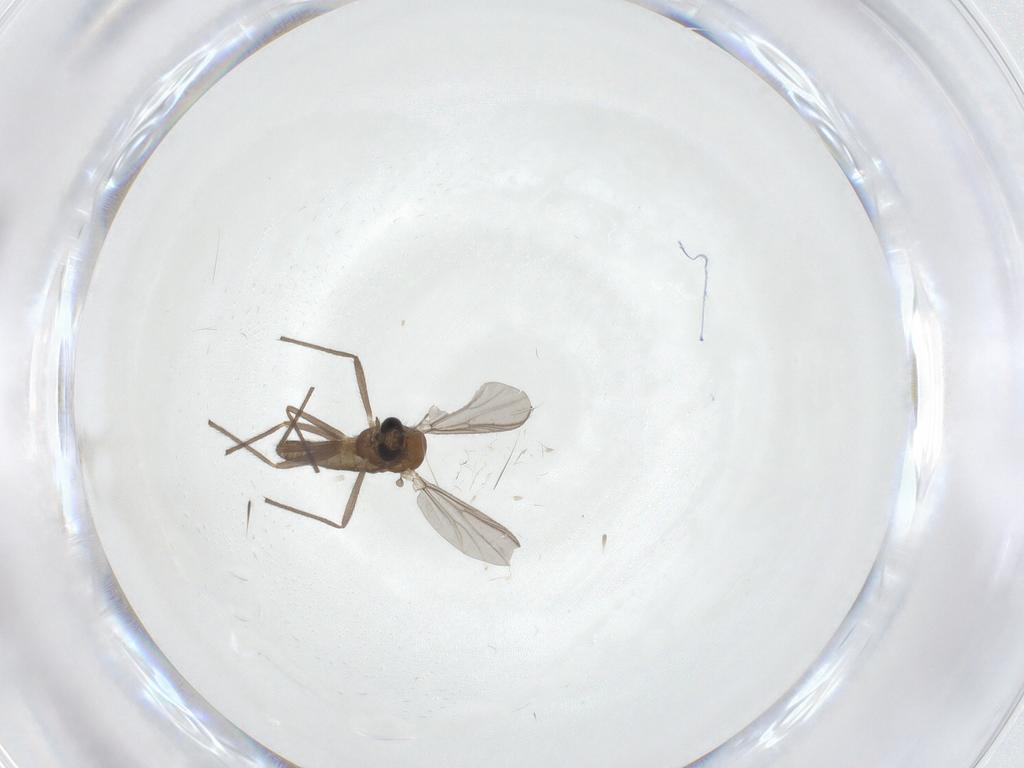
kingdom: Animalia
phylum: Arthropoda
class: Insecta
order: Diptera
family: Chironomidae
